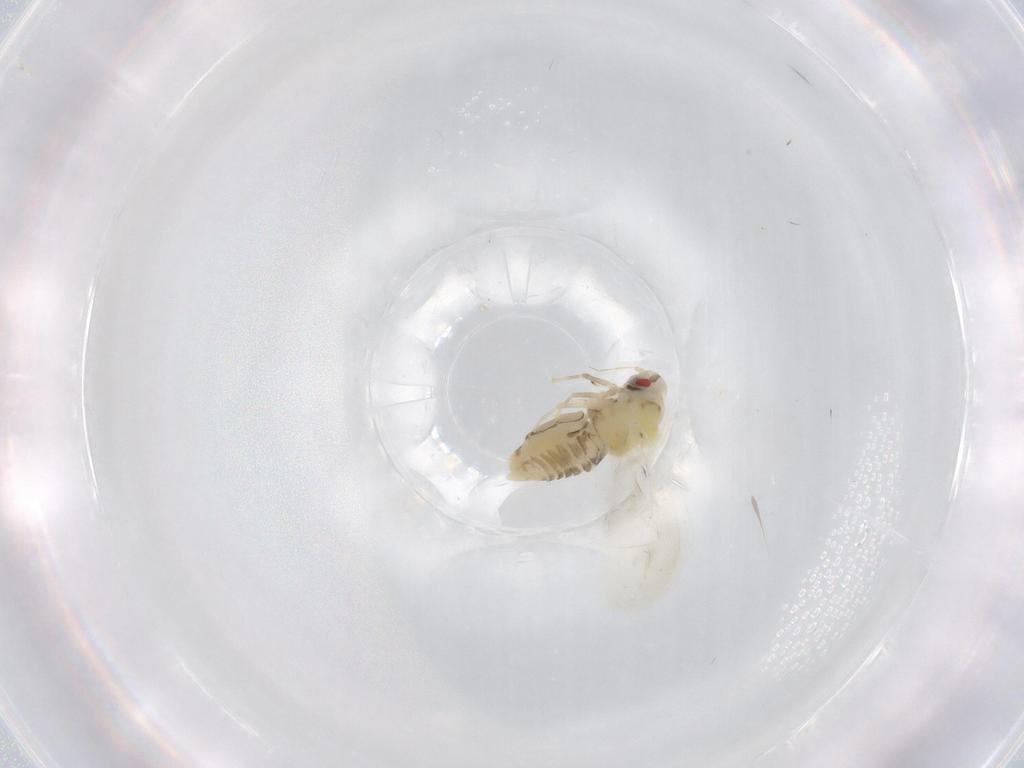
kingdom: Animalia
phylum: Arthropoda
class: Insecta
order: Hemiptera
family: Aleyrodidae
